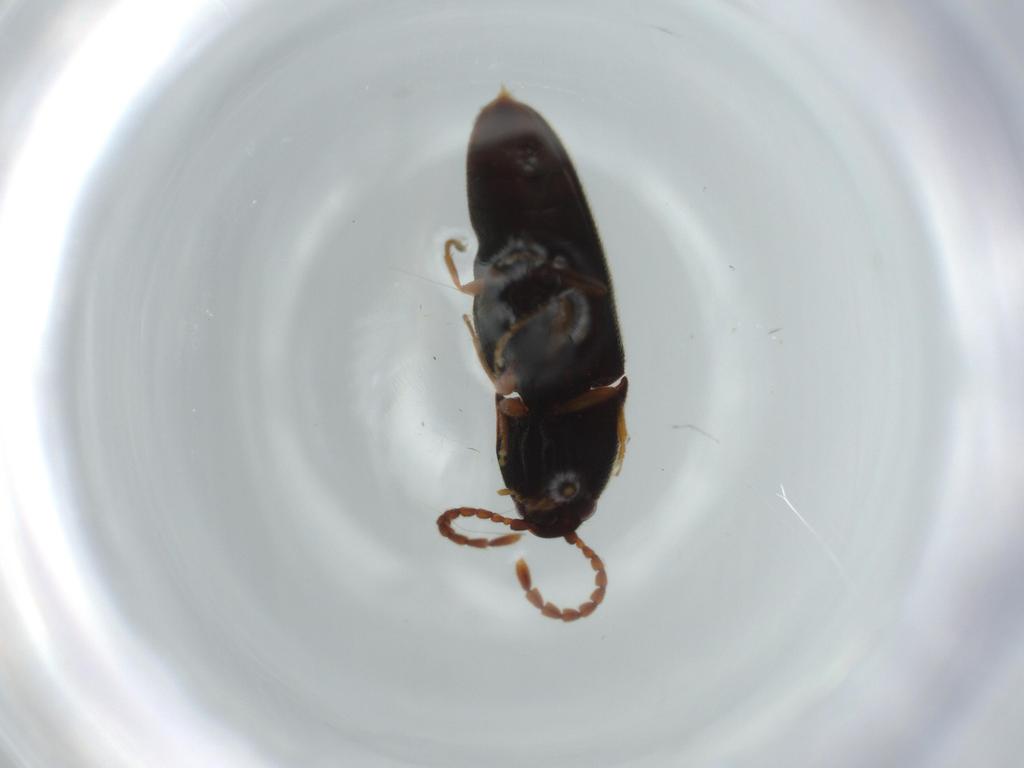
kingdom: Animalia
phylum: Arthropoda
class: Insecta
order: Coleoptera
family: Elateridae
